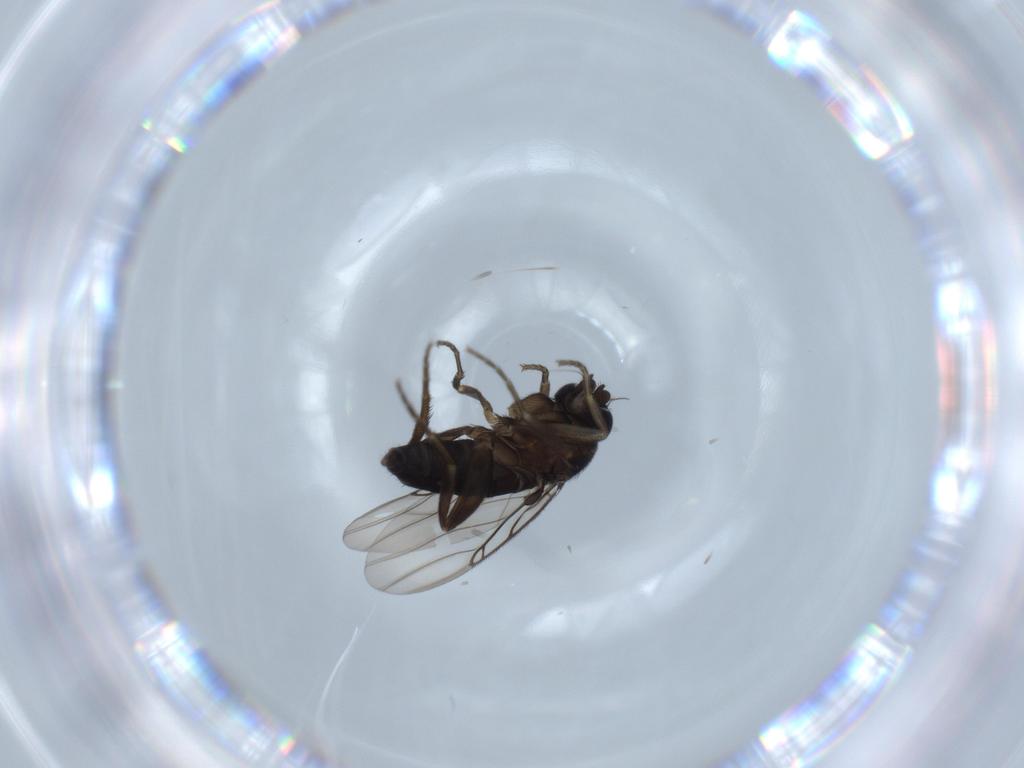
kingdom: Animalia
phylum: Arthropoda
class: Insecta
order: Diptera
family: Phoridae
